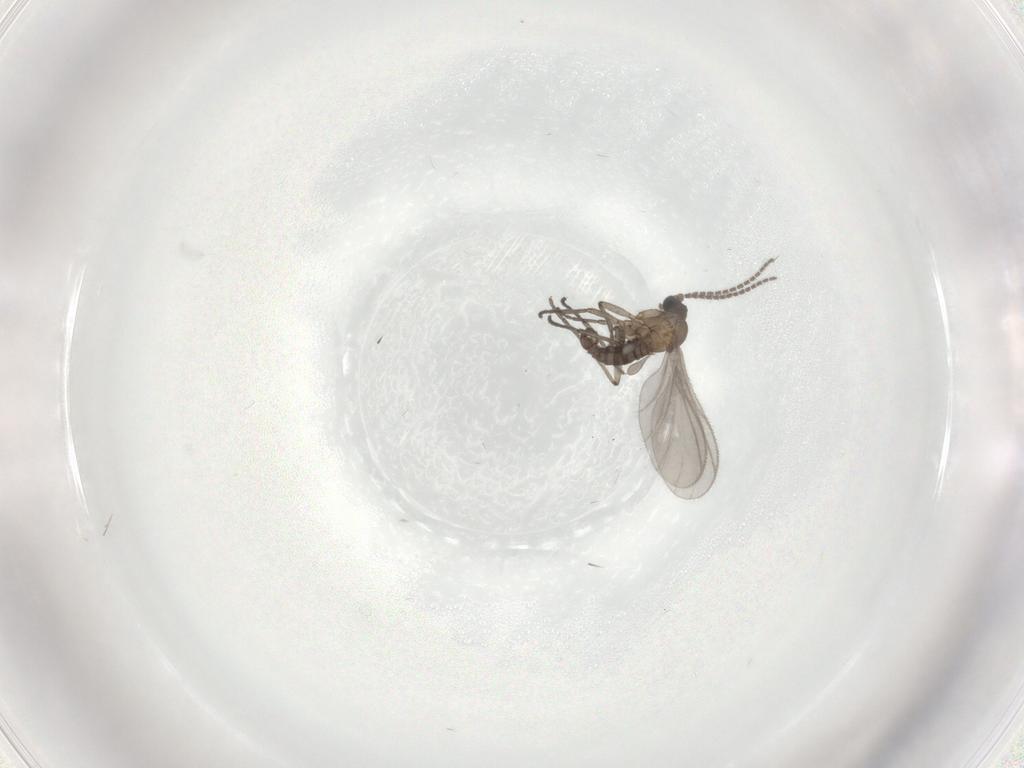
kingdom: Animalia
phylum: Arthropoda
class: Insecta
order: Diptera
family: Sciaridae
